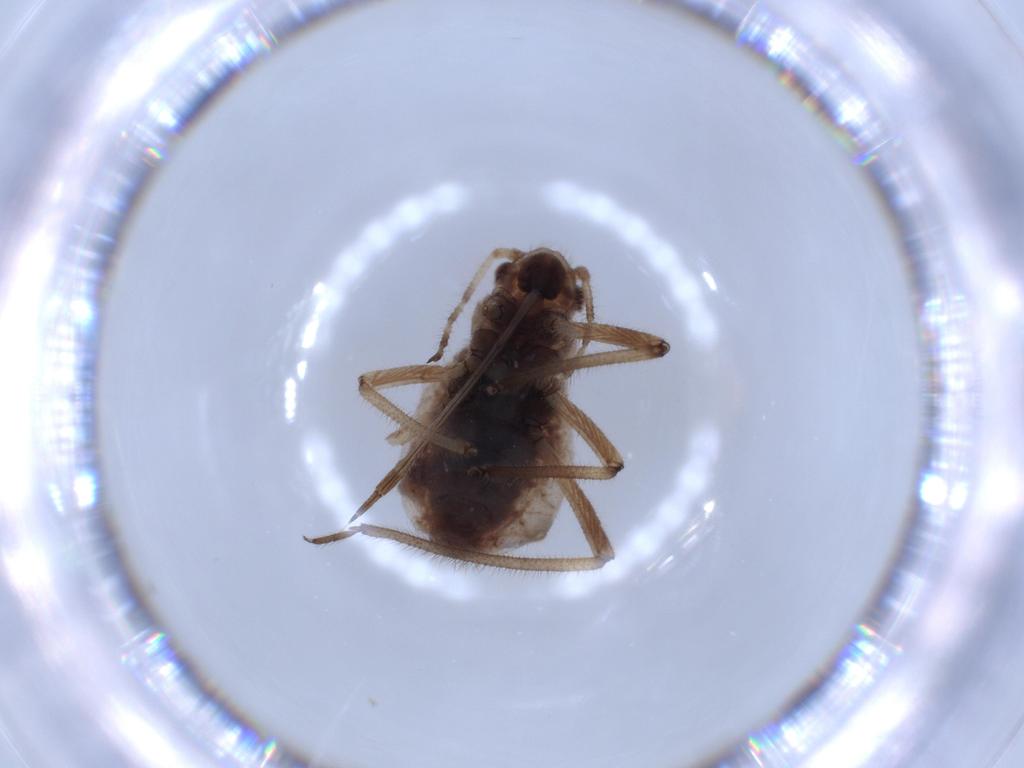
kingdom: Animalia
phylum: Arthropoda
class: Insecta
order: Hemiptera
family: Aphididae
